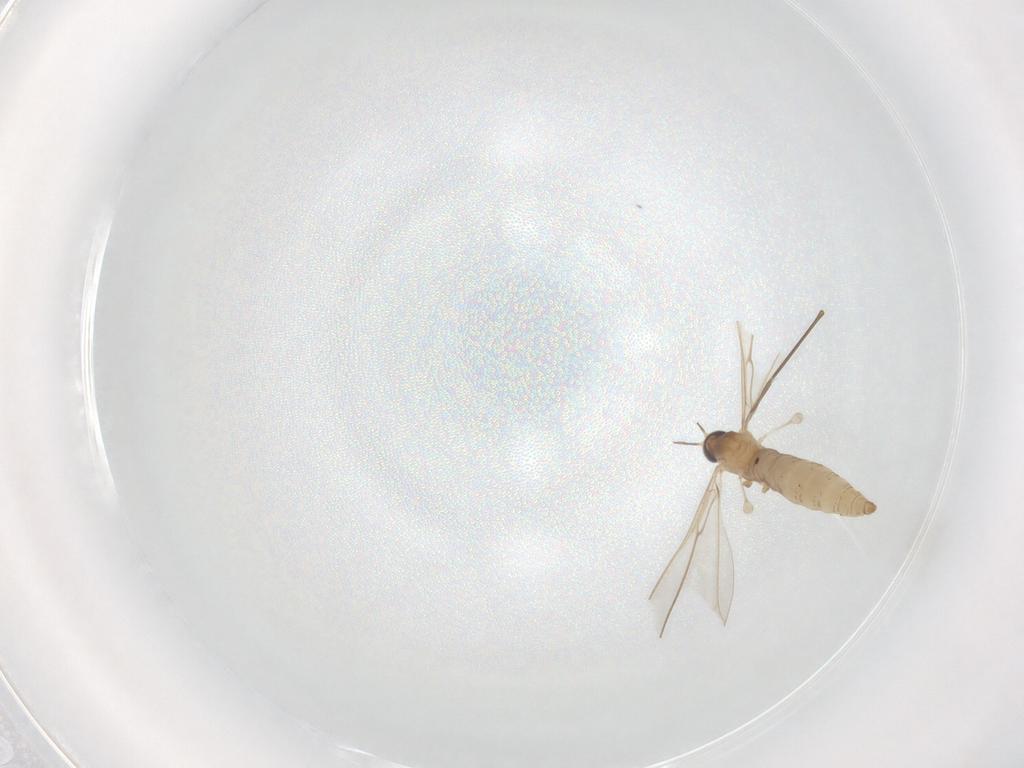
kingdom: Animalia
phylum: Arthropoda
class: Insecta
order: Diptera
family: Cecidomyiidae
